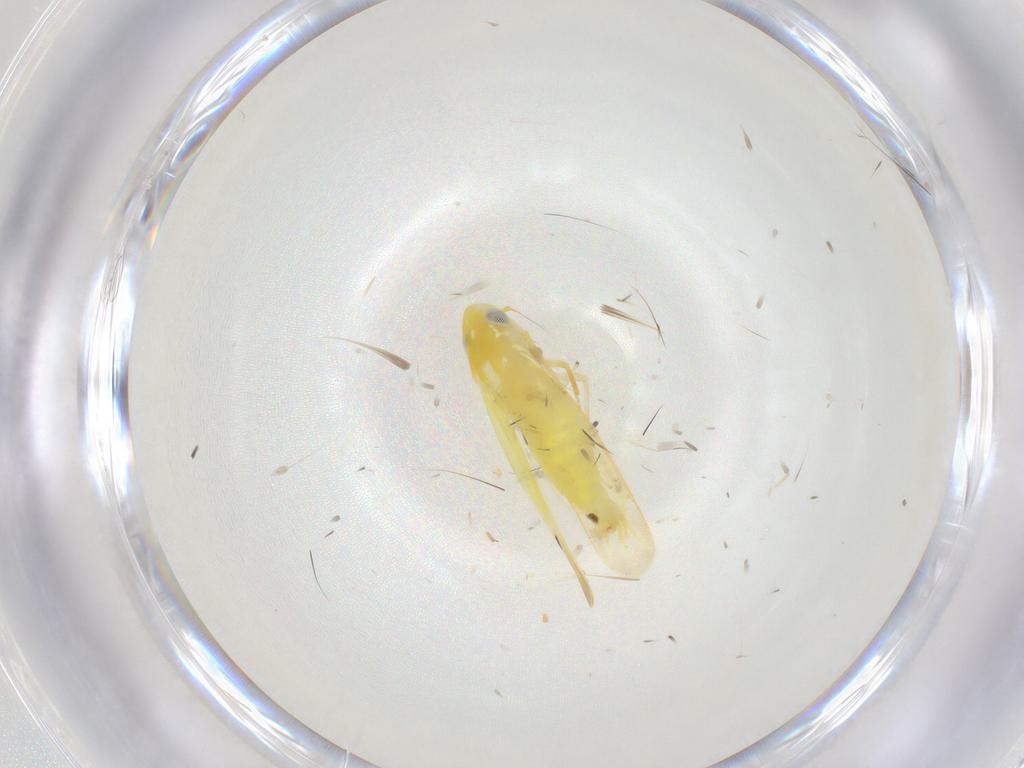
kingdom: Animalia
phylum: Arthropoda
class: Insecta
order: Hemiptera
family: Cicadellidae
